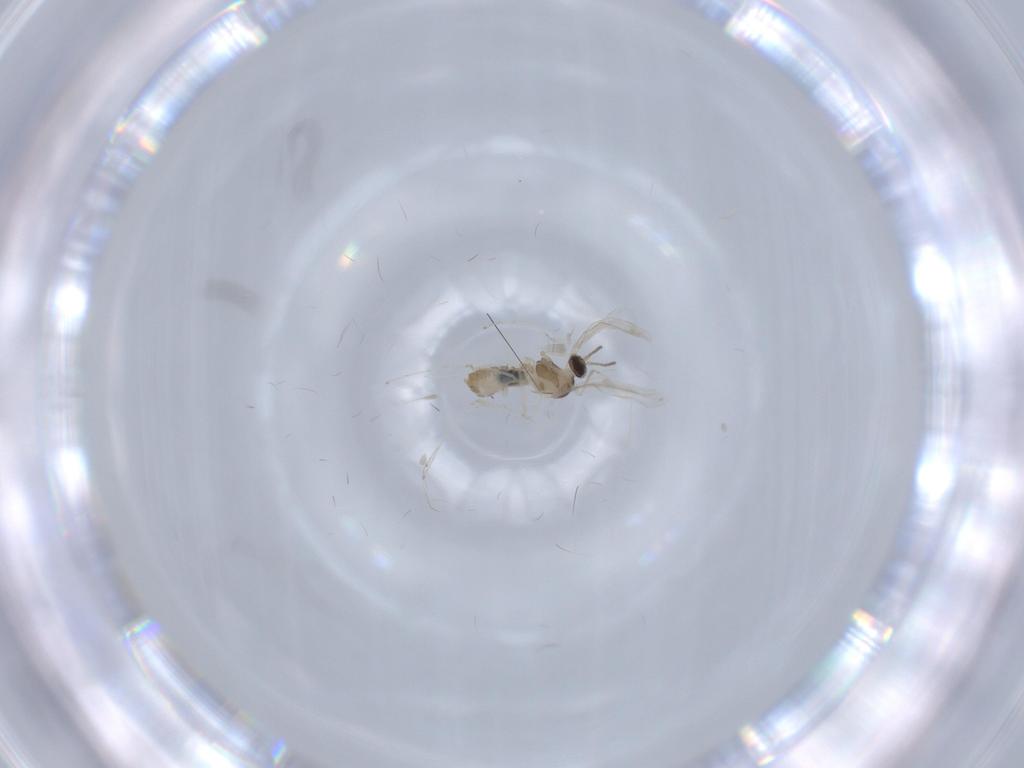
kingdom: Animalia
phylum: Arthropoda
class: Insecta
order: Diptera
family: Cecidomyiidae
